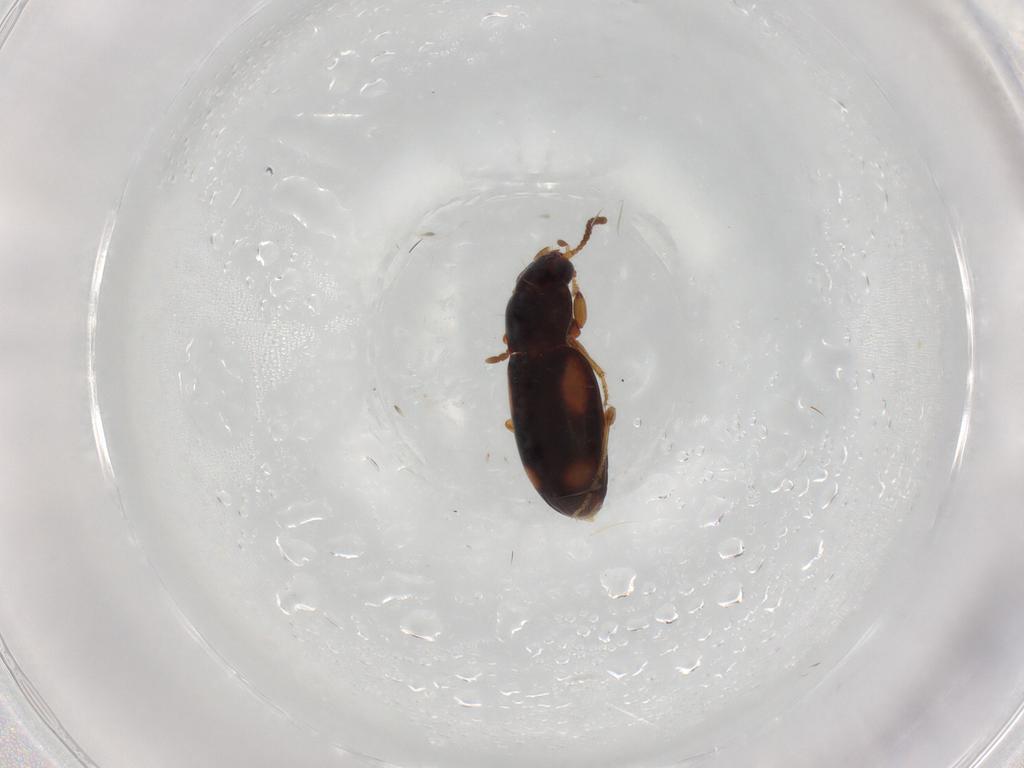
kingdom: Animalia
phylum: Arthropoda
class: Insecta
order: Coleoptera
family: Carabidae
